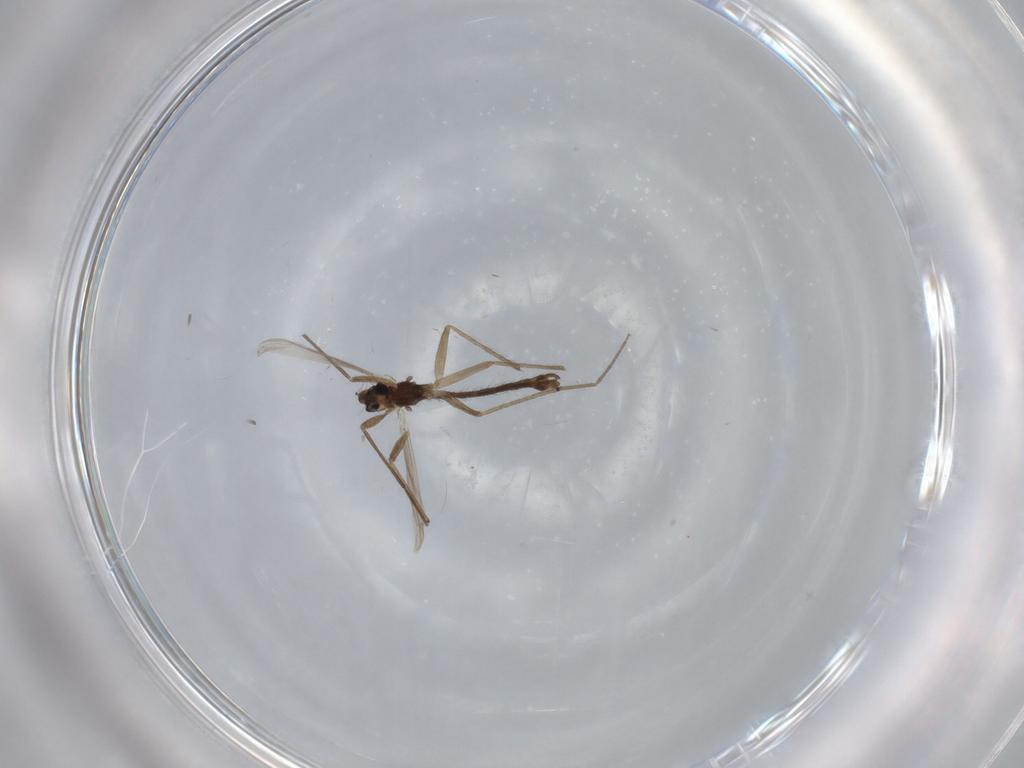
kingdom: Animalia
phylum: Arthropoda
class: Insecta
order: Diptera
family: Chironomidae
